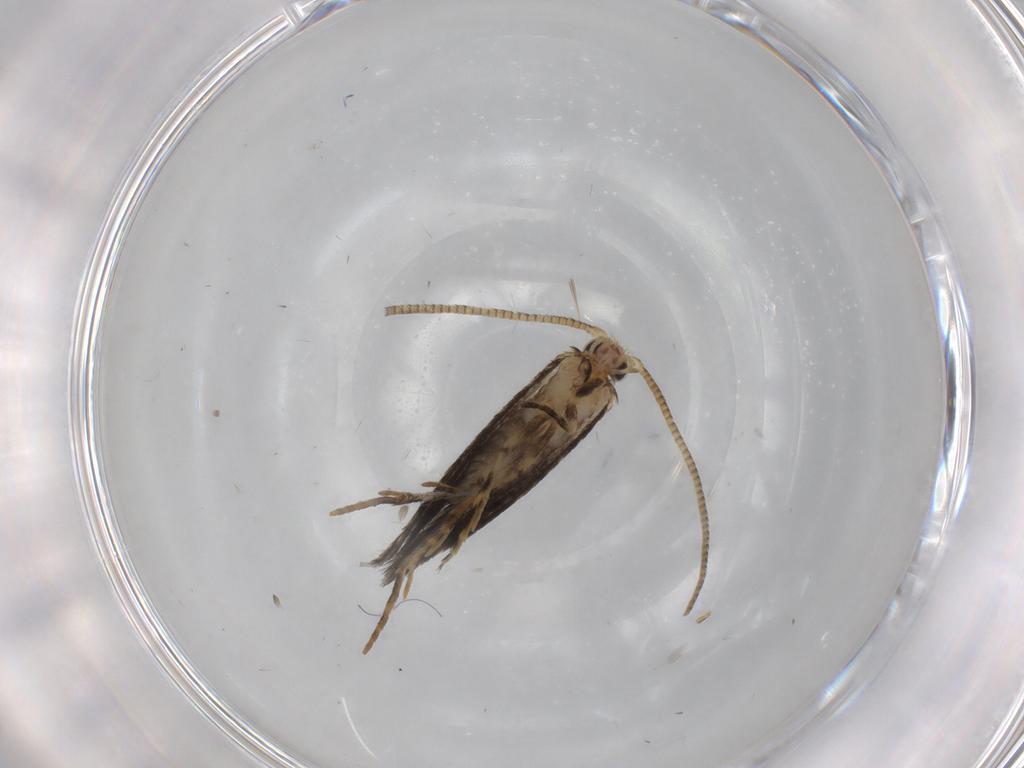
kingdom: Animalia
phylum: Arthropoda
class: Insecta
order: Lepidoptera
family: Tineidae
